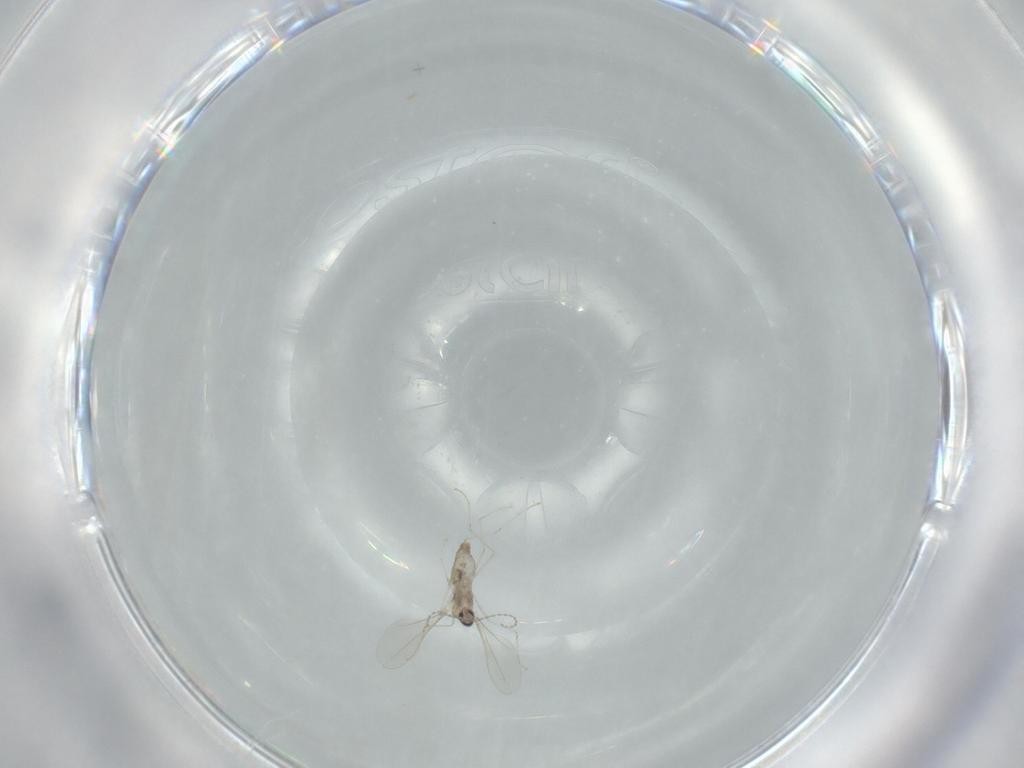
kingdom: Animalia
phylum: Arthropoda
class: Insecta
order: Diptera
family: Cecidomyiidae
